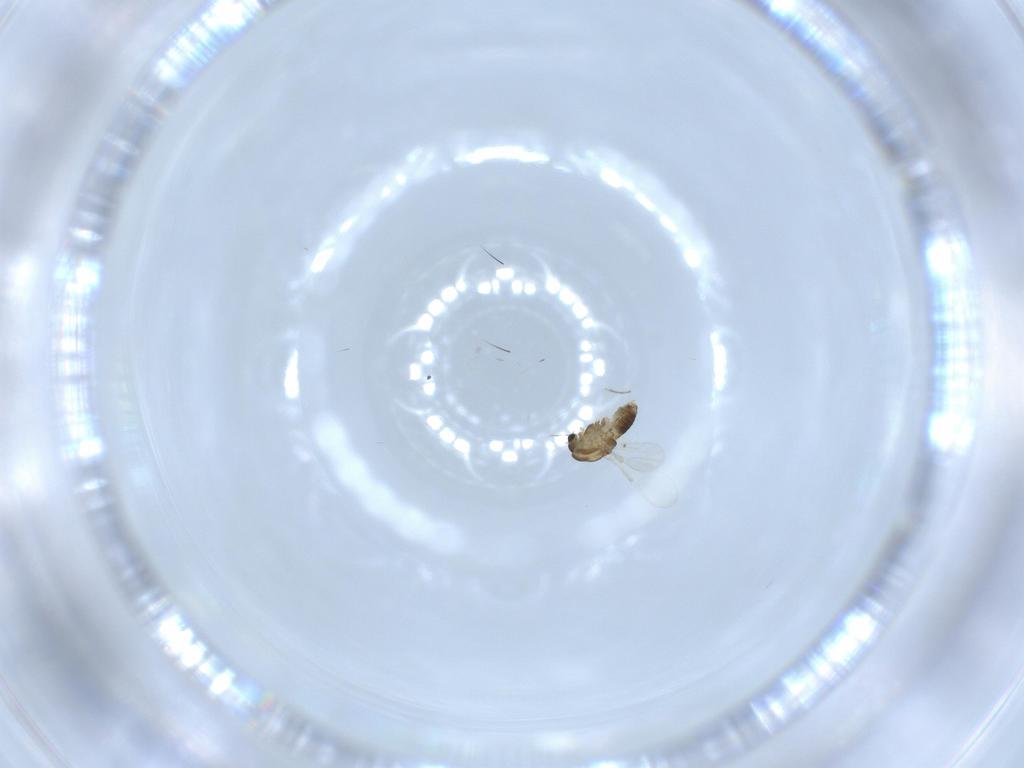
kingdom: Animalia
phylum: Arthropoda
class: Insecta
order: Diptera
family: Chironomidae
